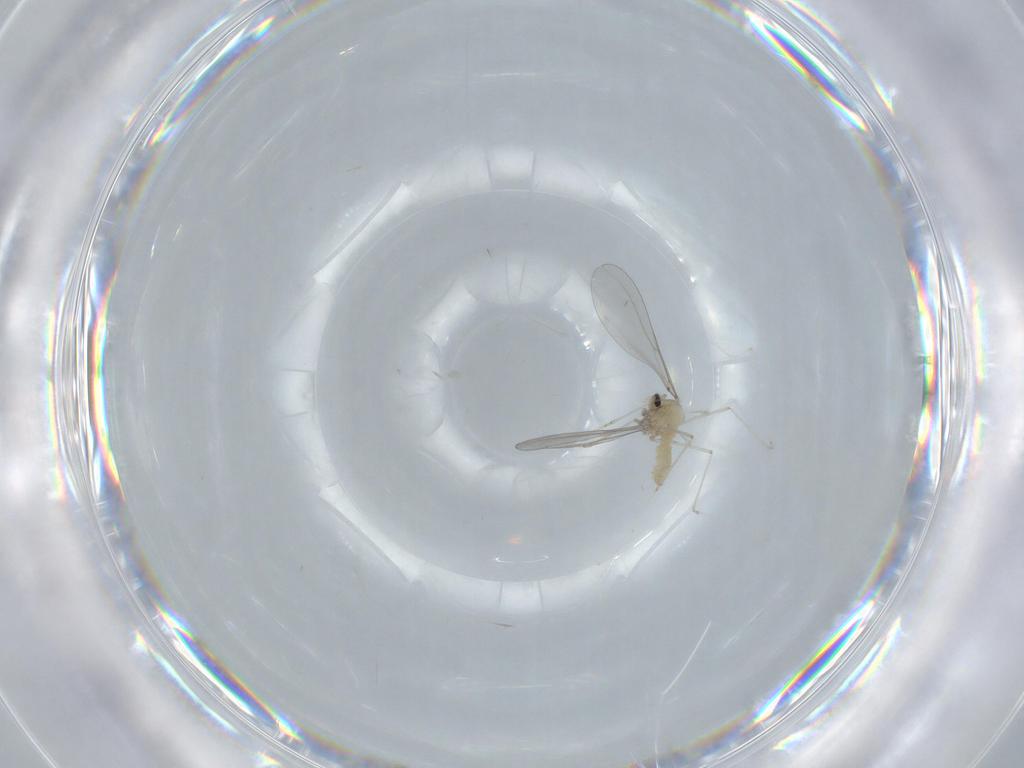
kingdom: Animalia
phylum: Arthropoda
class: Insecta
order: Diptera
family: Cecidomyiidae
